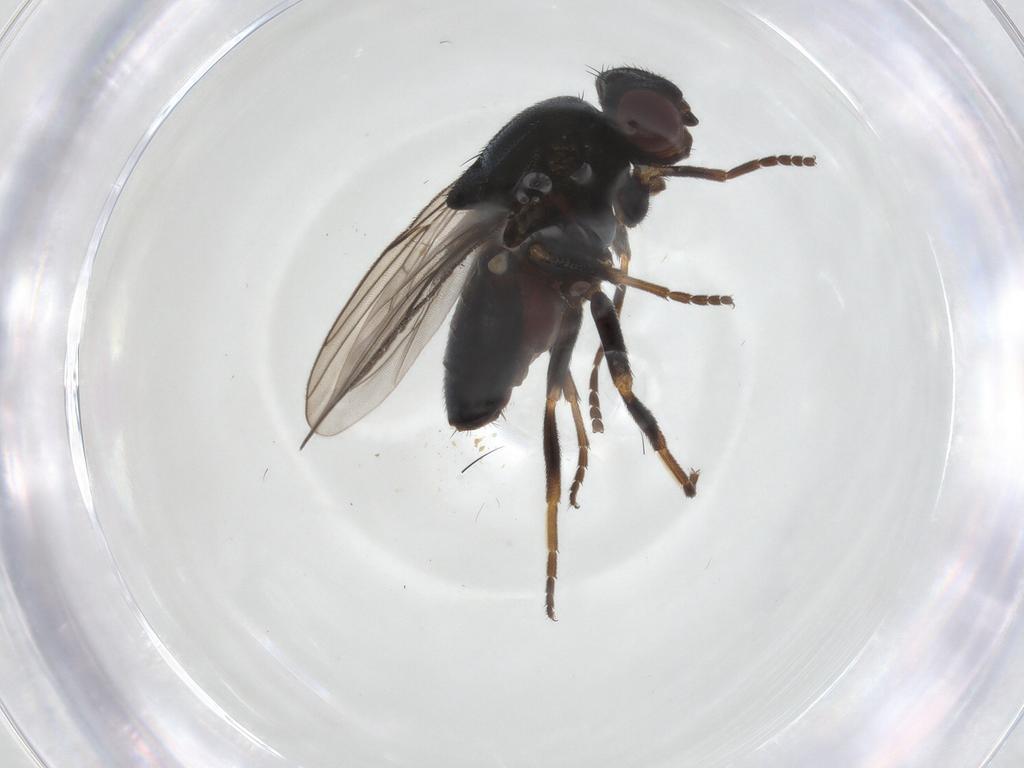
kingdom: Animalia
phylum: Arthropoda
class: Insecta
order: Diptera
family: Chloropidae
